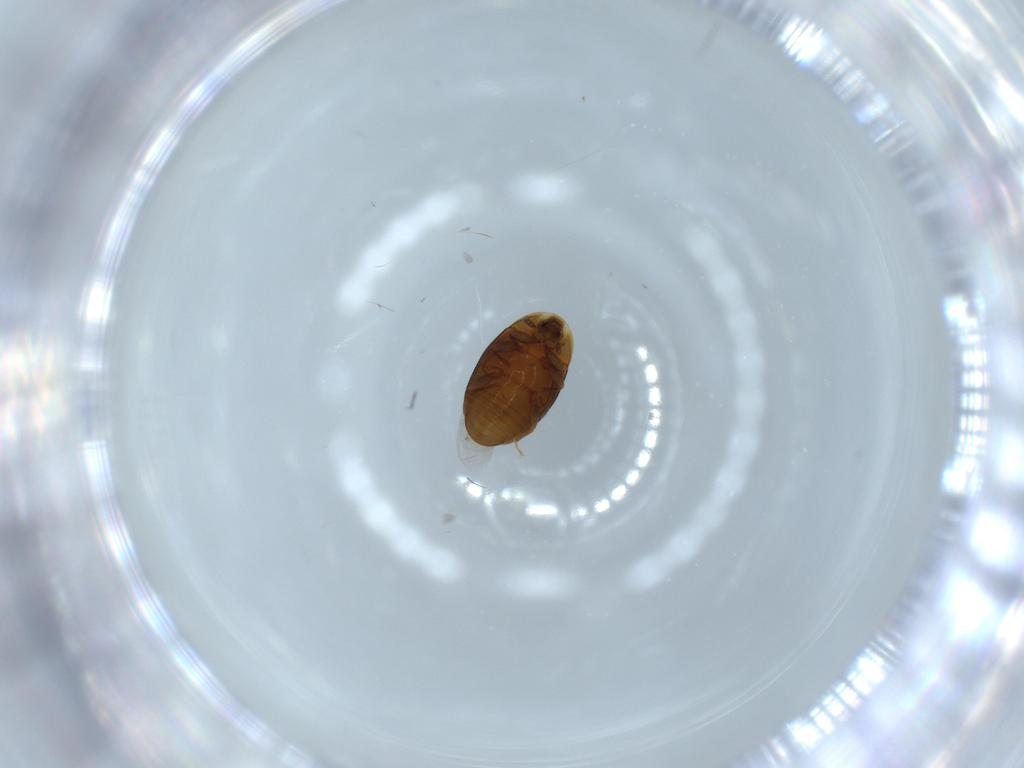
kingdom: Animalia
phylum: Arthropoda
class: Insecta
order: Coleoptera
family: Corylophidae
